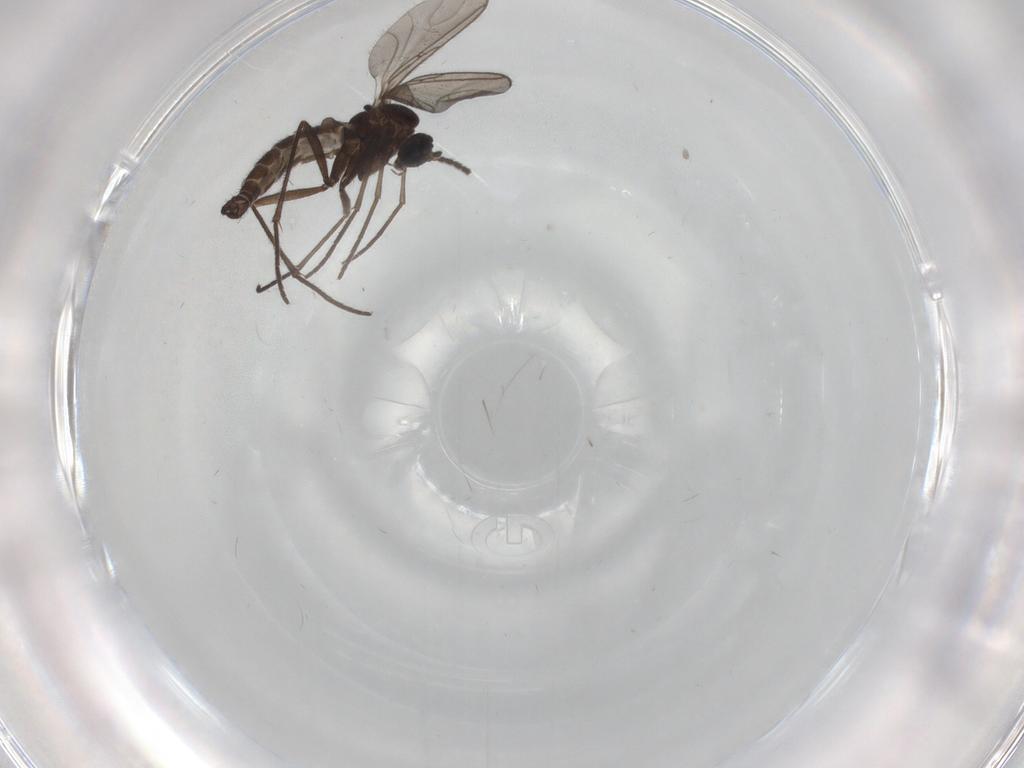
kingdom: Animalia
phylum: Arthropoda
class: Insecta
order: Diptera
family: Sciaridae
